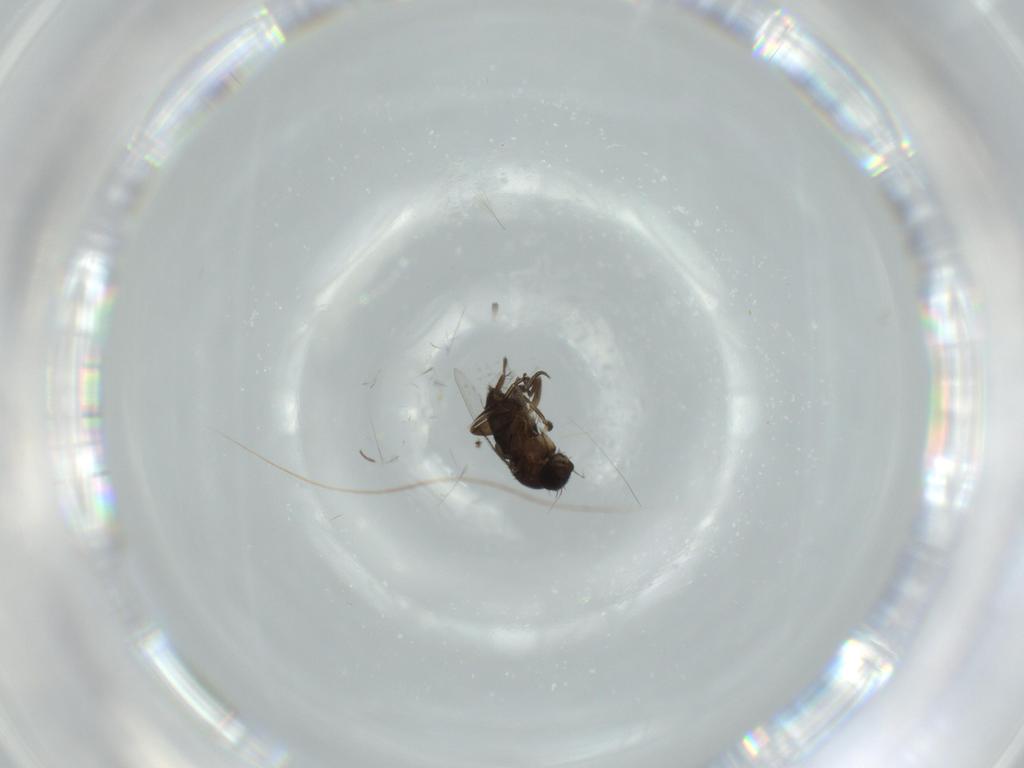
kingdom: Animalia
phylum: Arthropoda
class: Insecta
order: Diptera
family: Phoridae
